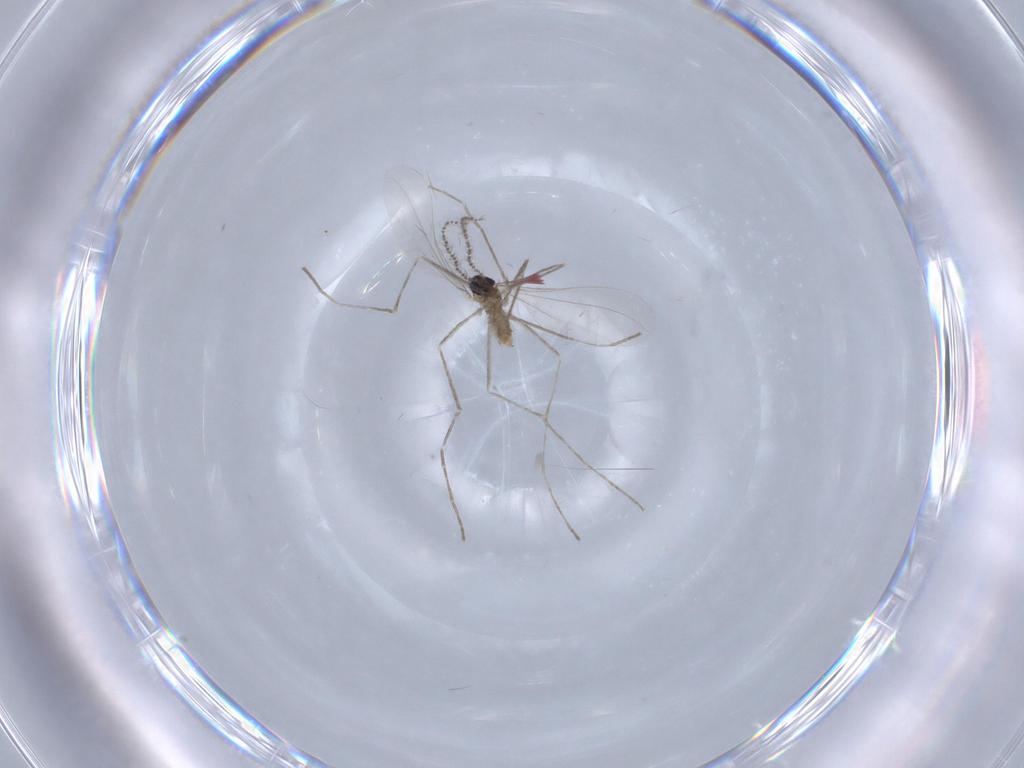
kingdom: Animalia
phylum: Arthropoda
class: Insecta
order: Diptera
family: Cecidomyiidae
